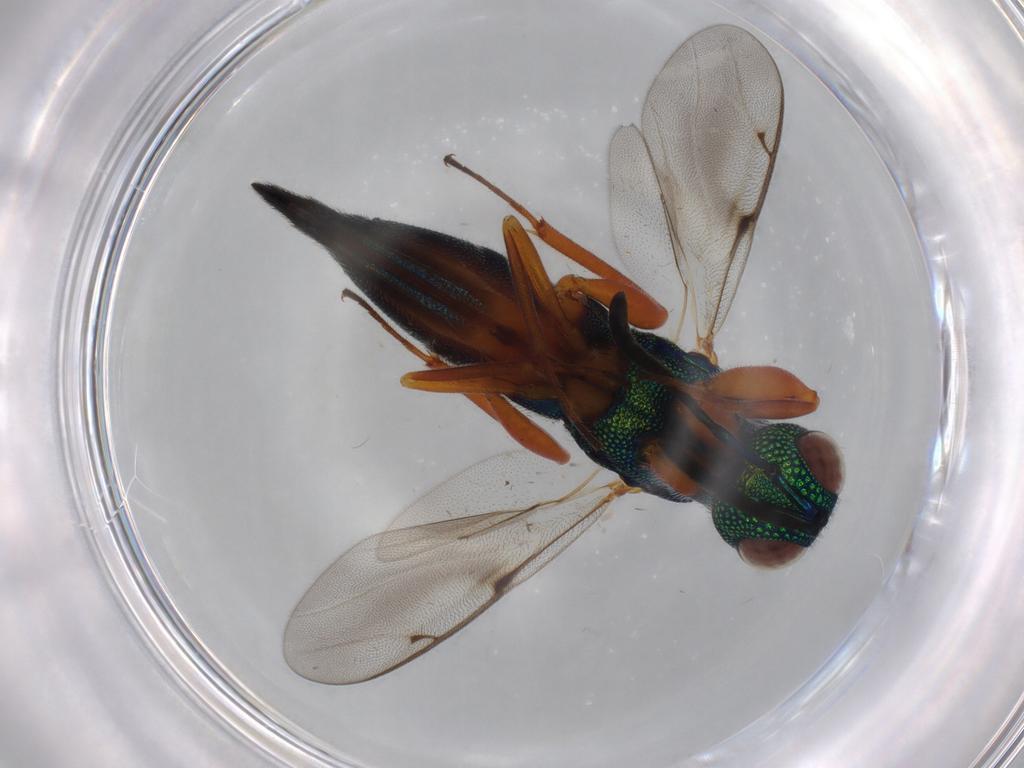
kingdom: Animalia
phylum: Arthropoda
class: Insecta
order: Hymenoptera
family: Lyciscidae
